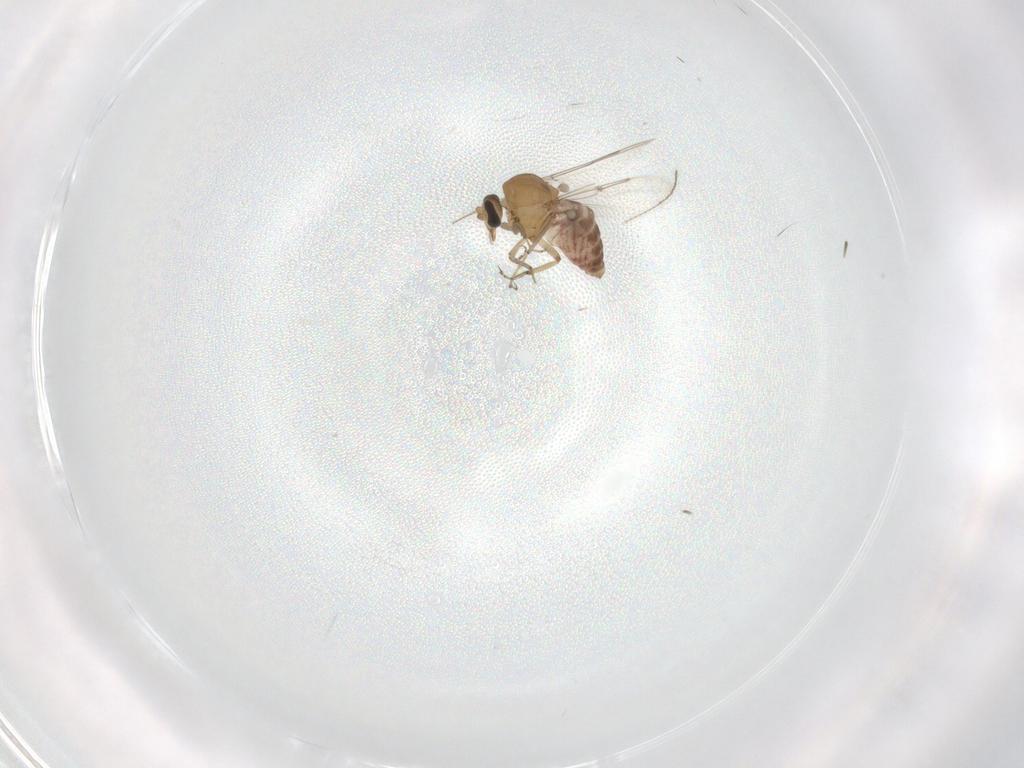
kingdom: Animalia
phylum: Arthropoda
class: Insecta
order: Diptera
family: Ceratopogonidae
